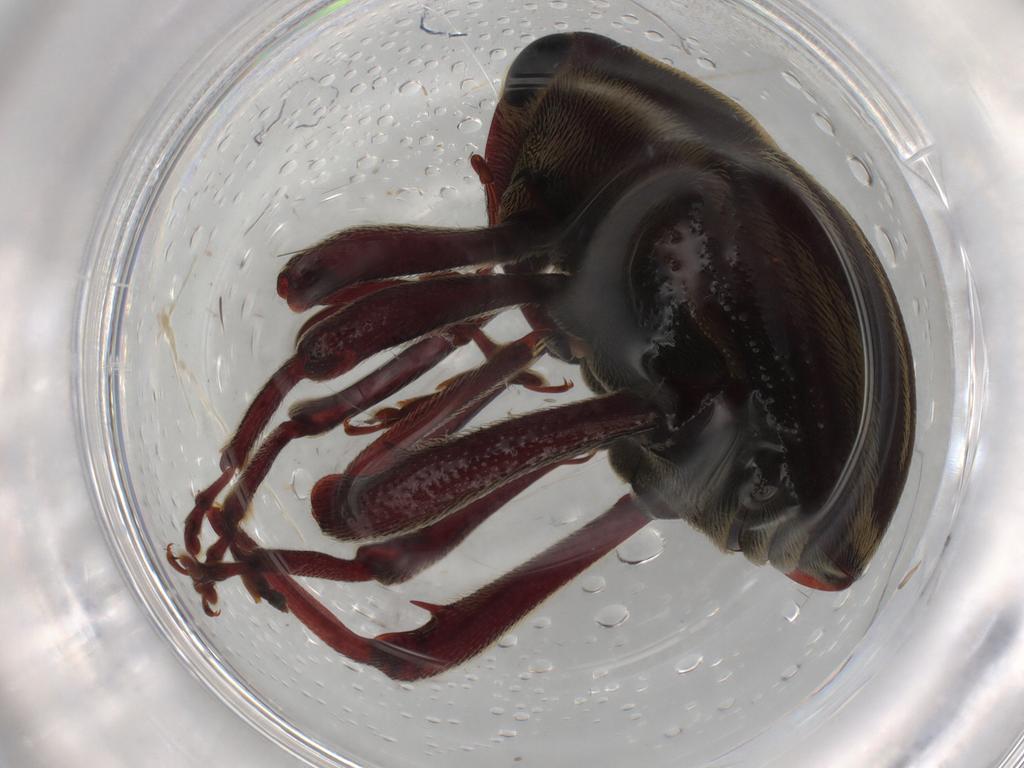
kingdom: Animalia
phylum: Arthropoda
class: Insecta
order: Coleoptera
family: Curculionidae
